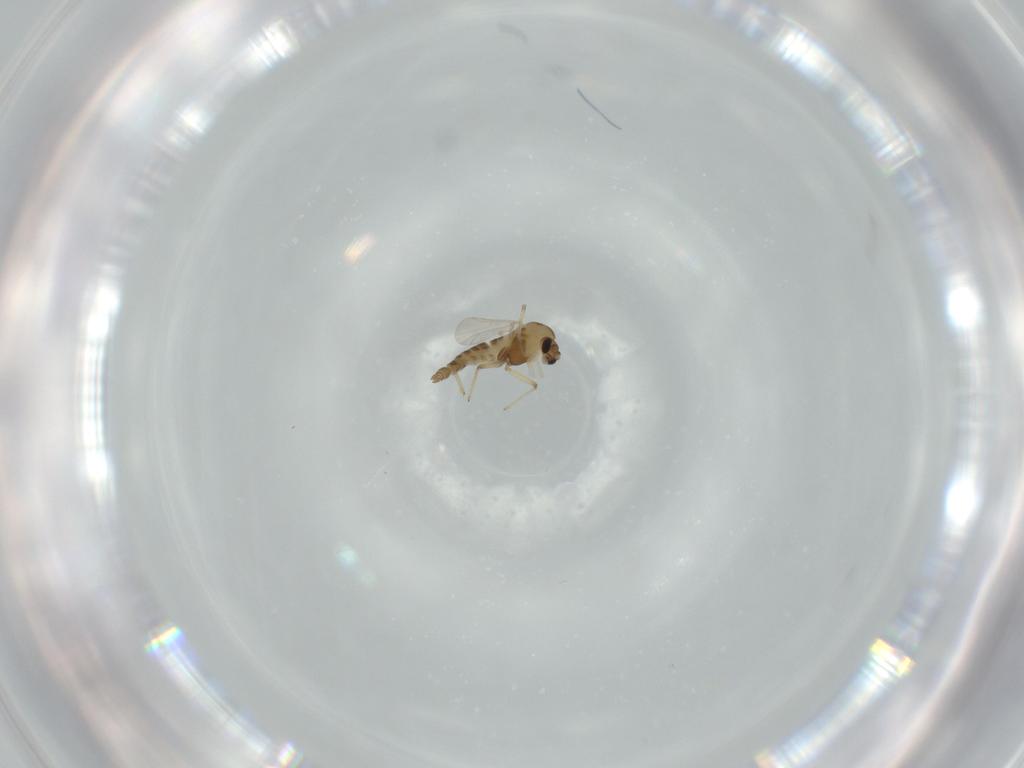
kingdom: Animalia
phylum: Arthropoda
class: Insecta
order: Diptera
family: Chironomidae
